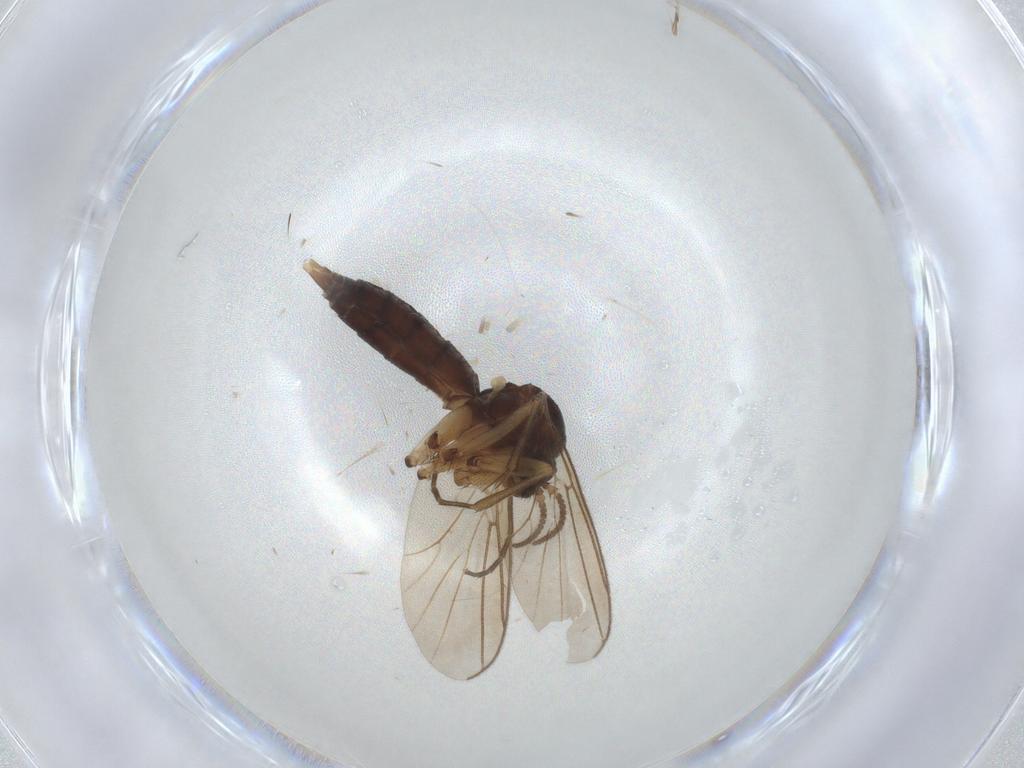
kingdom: Animalia
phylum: Arthropoda
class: Insecta
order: Diptera
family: Mycetophilidae
